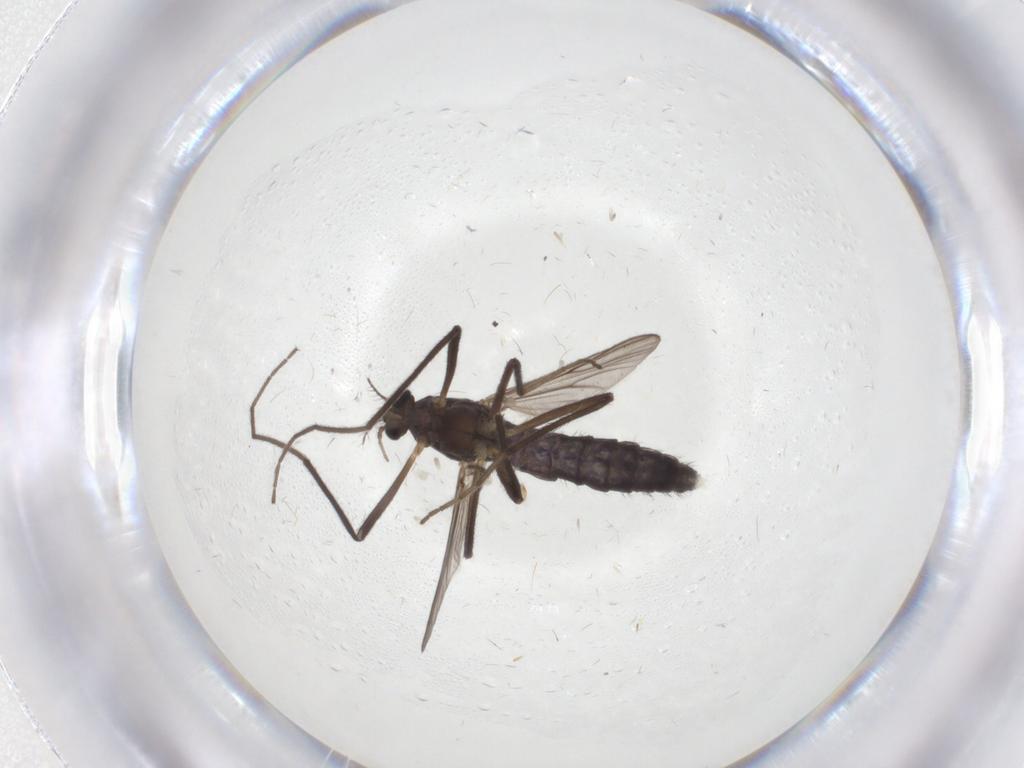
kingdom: Animalia
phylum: Arthropoda
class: Insecta
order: Diptera
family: Chironomidae
